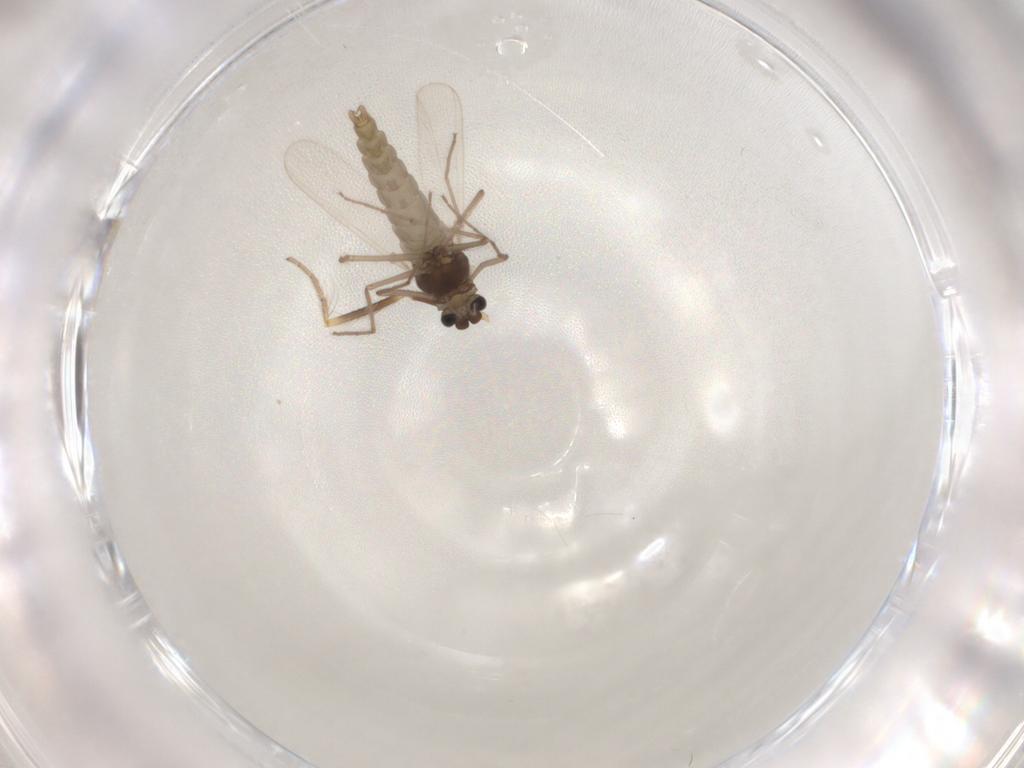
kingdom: Animalia
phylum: Arthropoda
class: Insecta
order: Diptera
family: Chironomidae
